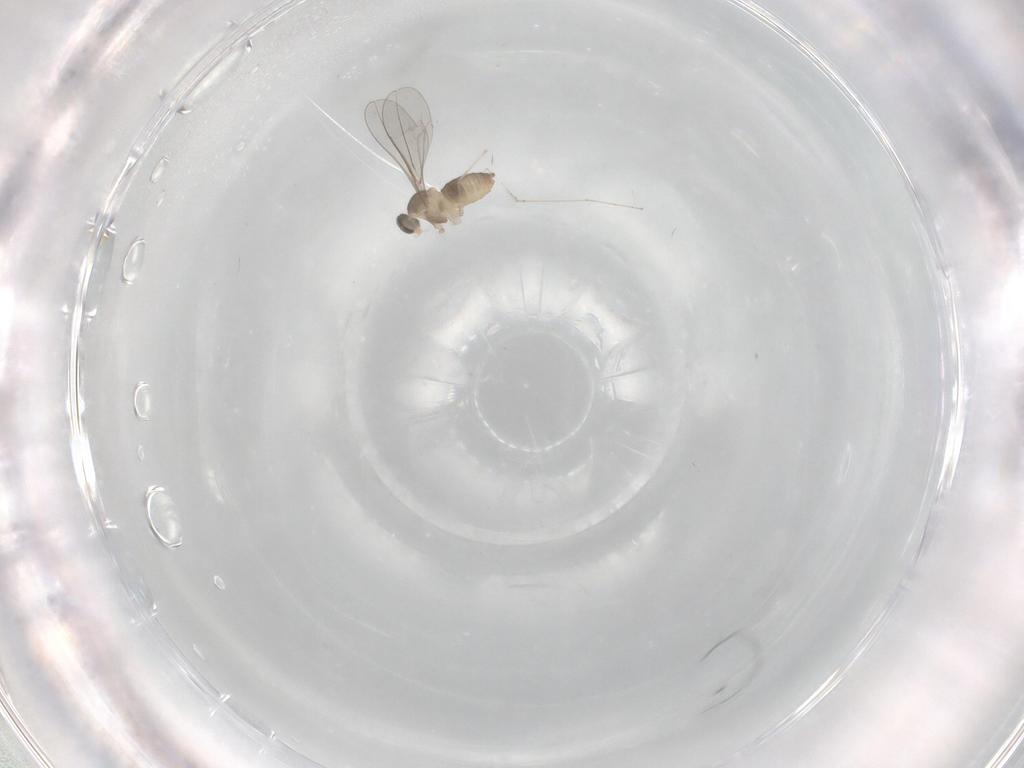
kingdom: Animalia
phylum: Arthropoda
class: Insecta
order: Diptera
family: Cecidomyiidae
